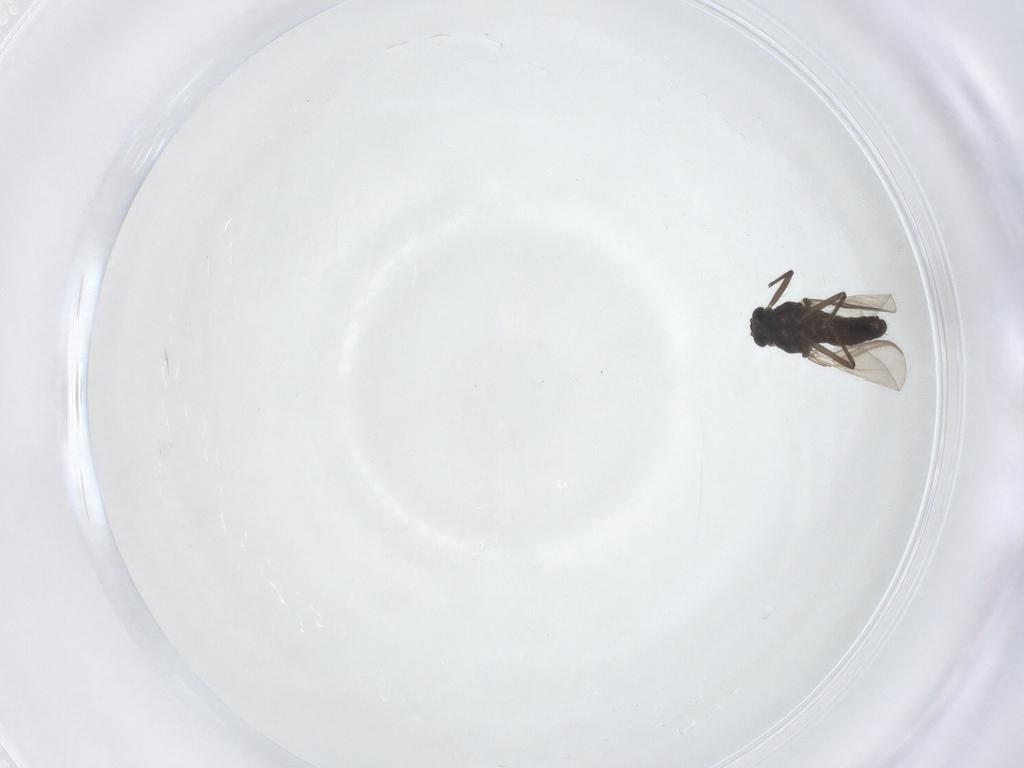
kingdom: Animalia
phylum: Arthropoda
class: Insecta
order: Diptera
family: Chironomidae
